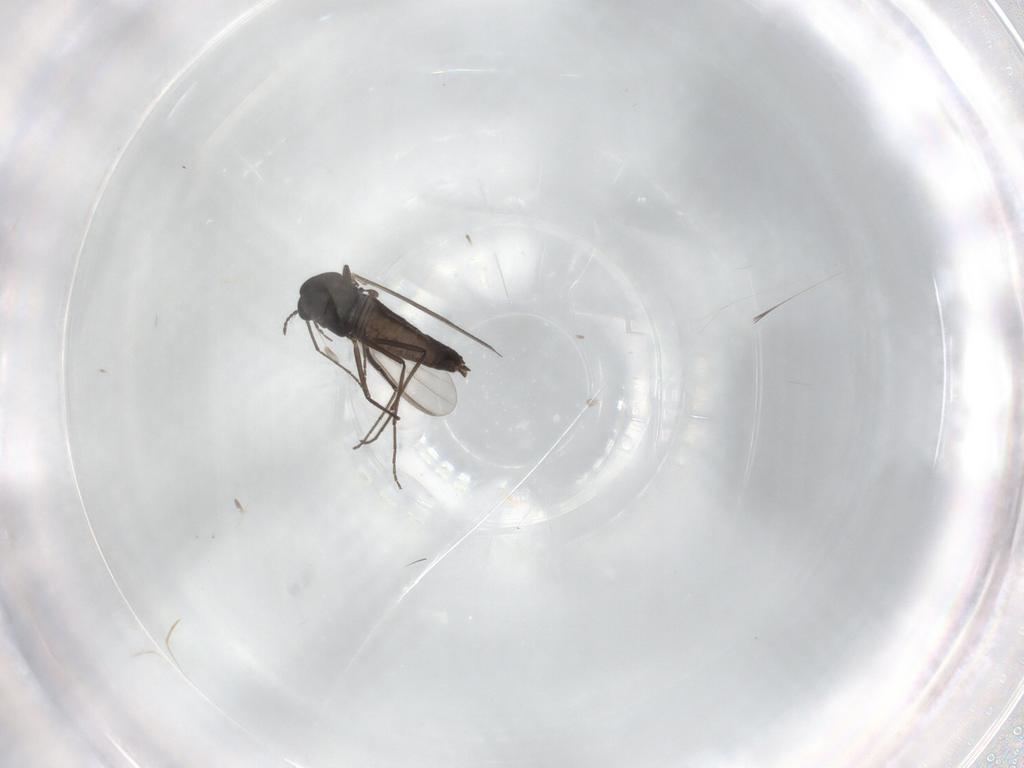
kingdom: Animalia
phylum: Arthropoda
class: Insecta
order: Diptera
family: Chironomidae
